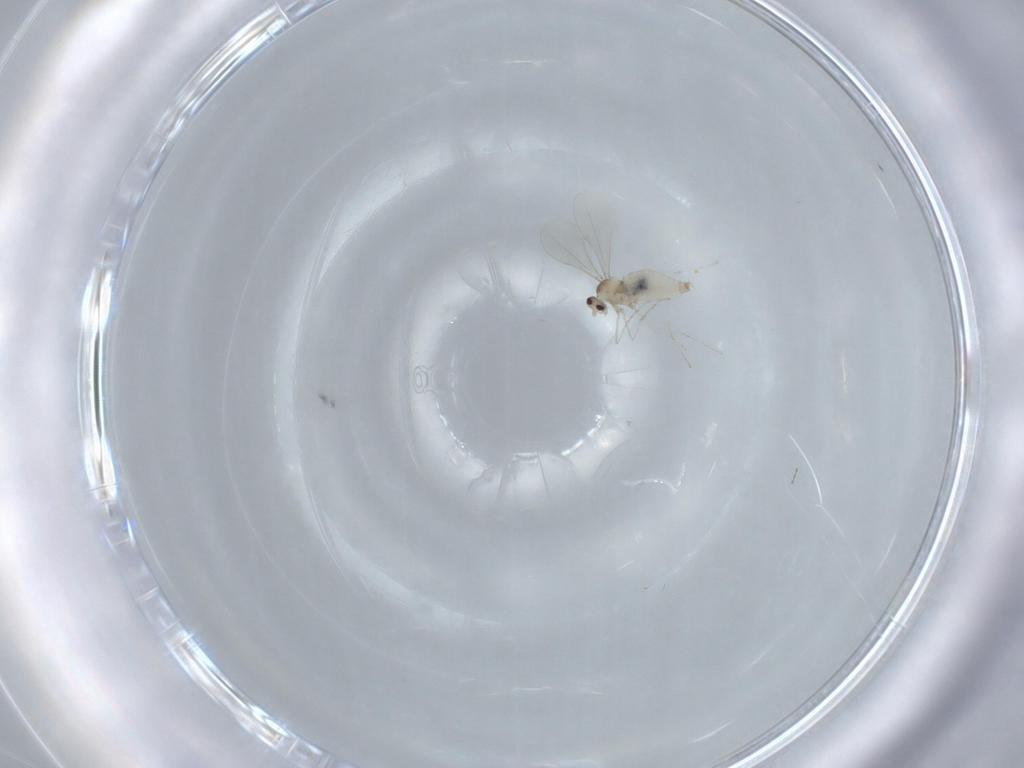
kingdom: Animalia
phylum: Arthropoda
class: Insecta
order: Diptera
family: Cecidomyiidae
